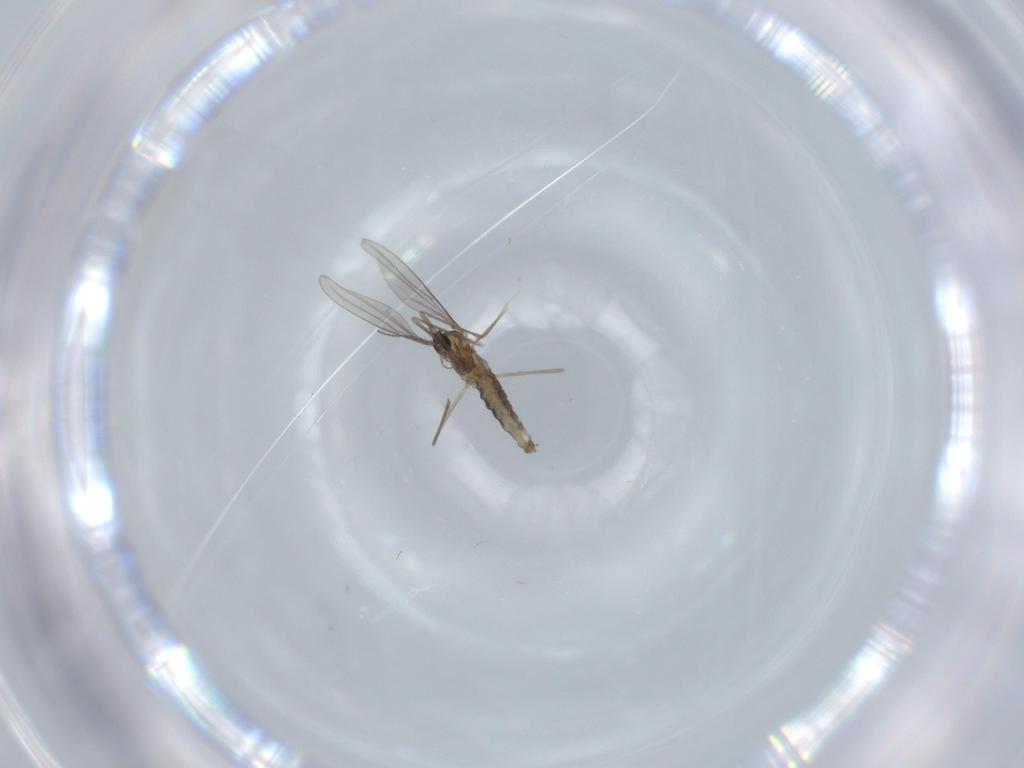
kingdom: Animalia
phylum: Arthropoda
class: Insecta
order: Diptera
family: Cecidomyiidae
